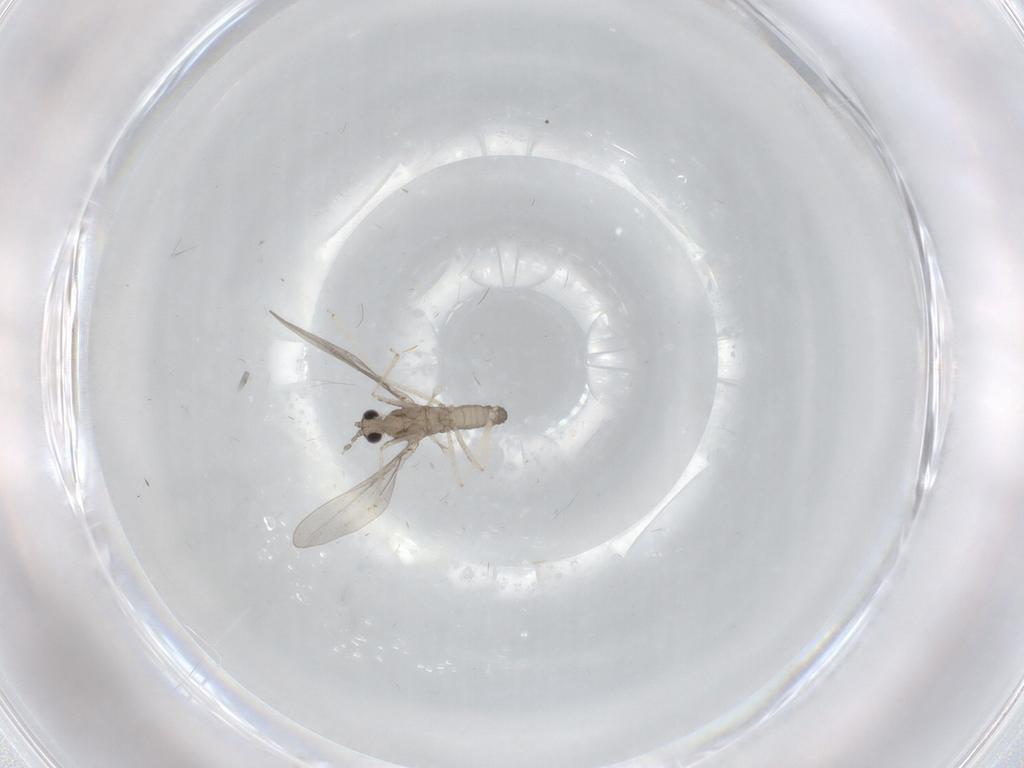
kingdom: Animalia
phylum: Arthropoda
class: Insecta
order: Diptera
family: Cecidomyiidae
